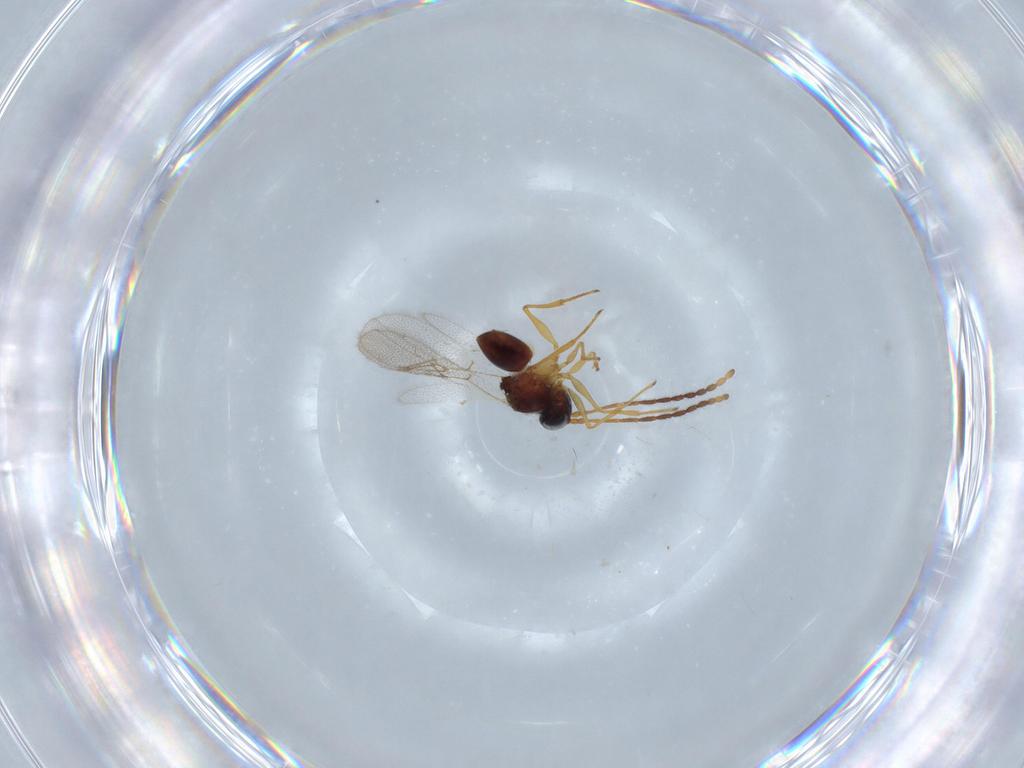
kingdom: Animalia
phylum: Arthropoda
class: Insecta
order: Hymenoptera
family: Figitidae
